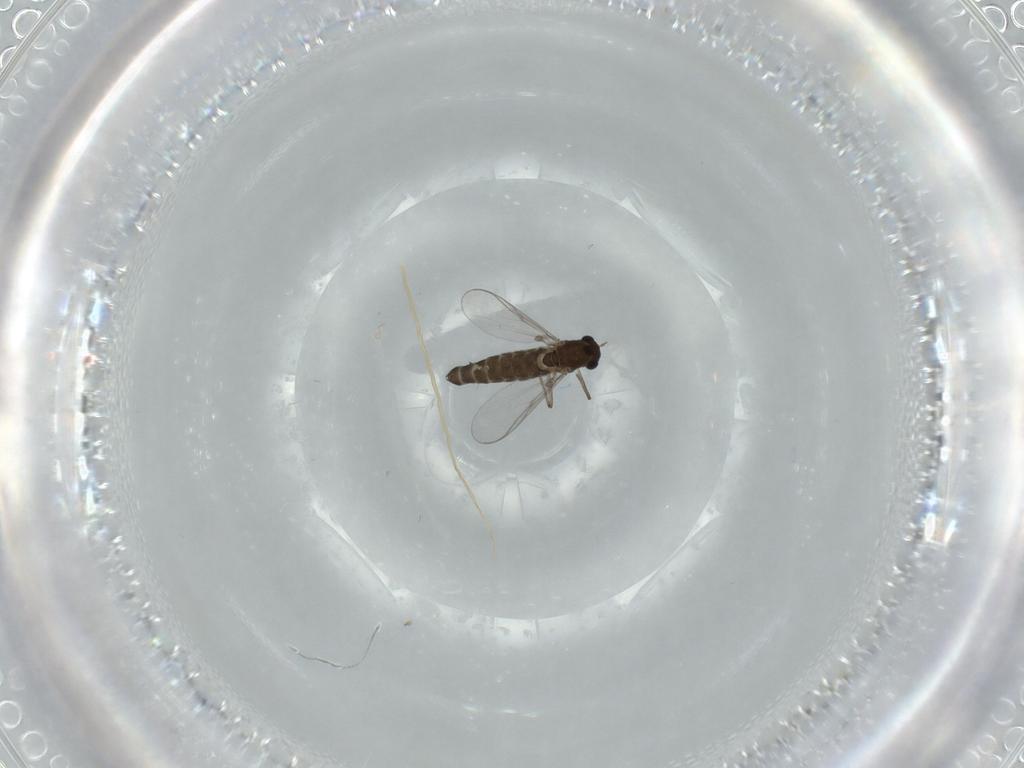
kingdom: Animalia
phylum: Arthropoda
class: Insecta
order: Diptera
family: Chironomidae
